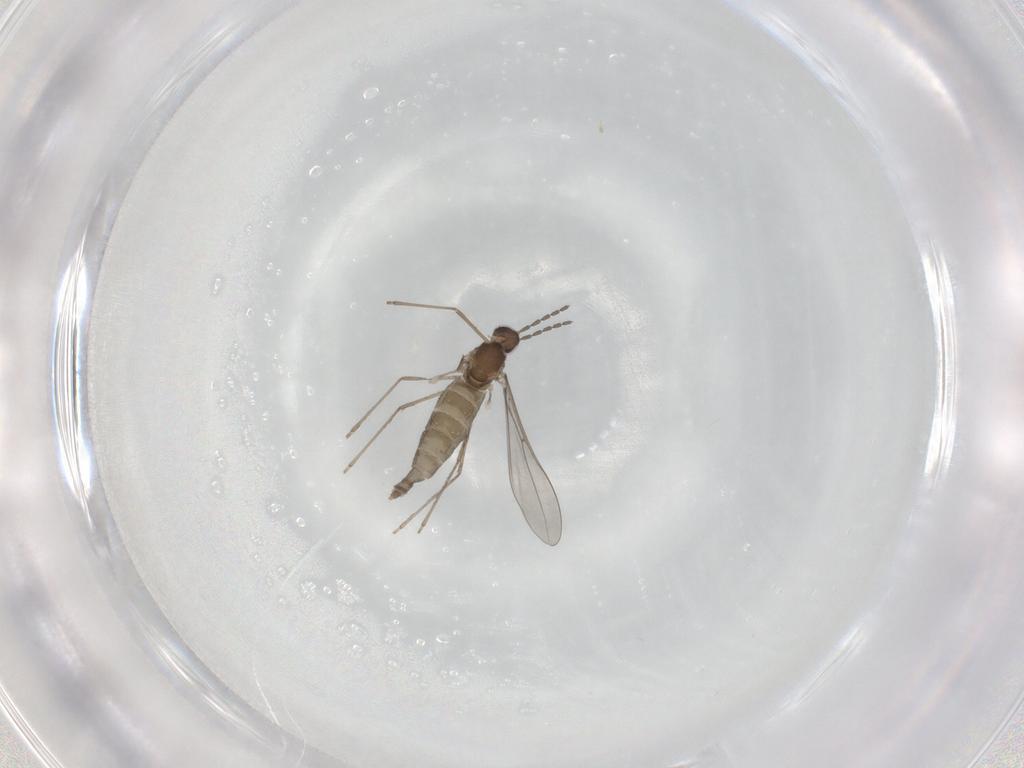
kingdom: Animalia
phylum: Arthropoda
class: Insecta
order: Diptera
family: Cecidomyiidae
